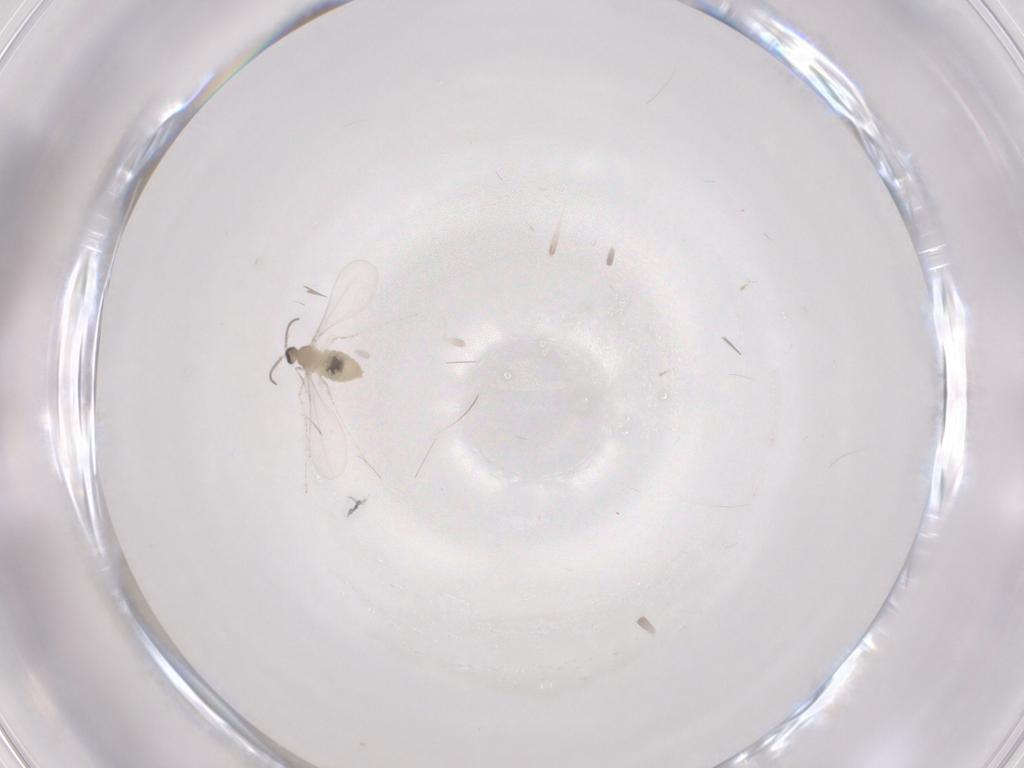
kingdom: Animalia
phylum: Arthropoda
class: Insecta
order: Diptera
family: Cecidomyiidae
